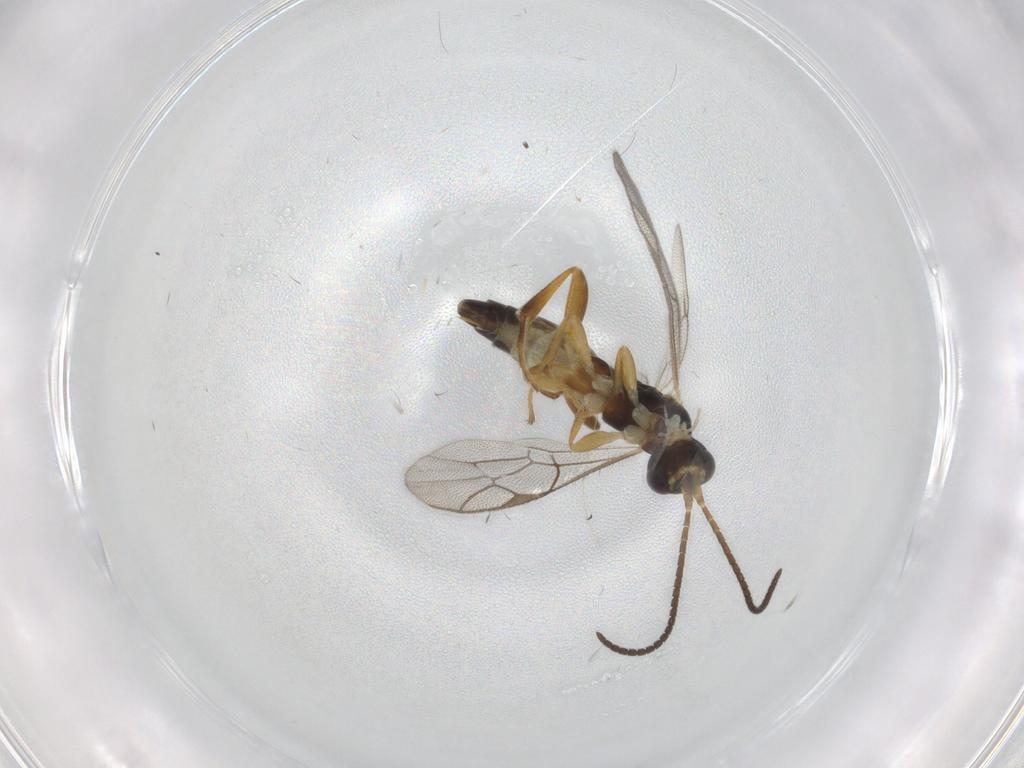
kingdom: Animalia
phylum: Arthropoda
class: Insecta
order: Hymenoptera
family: Ichneumonidae
